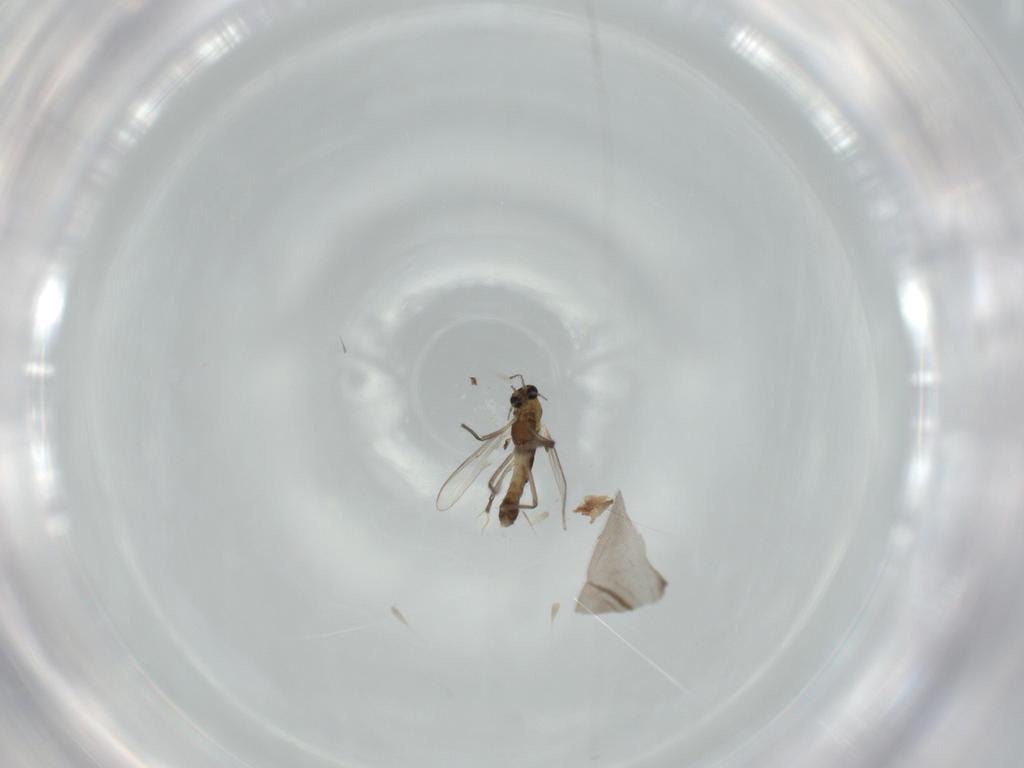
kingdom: Animalia
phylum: Arthropoda
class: Insecta
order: Diptera
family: Chironomidae
